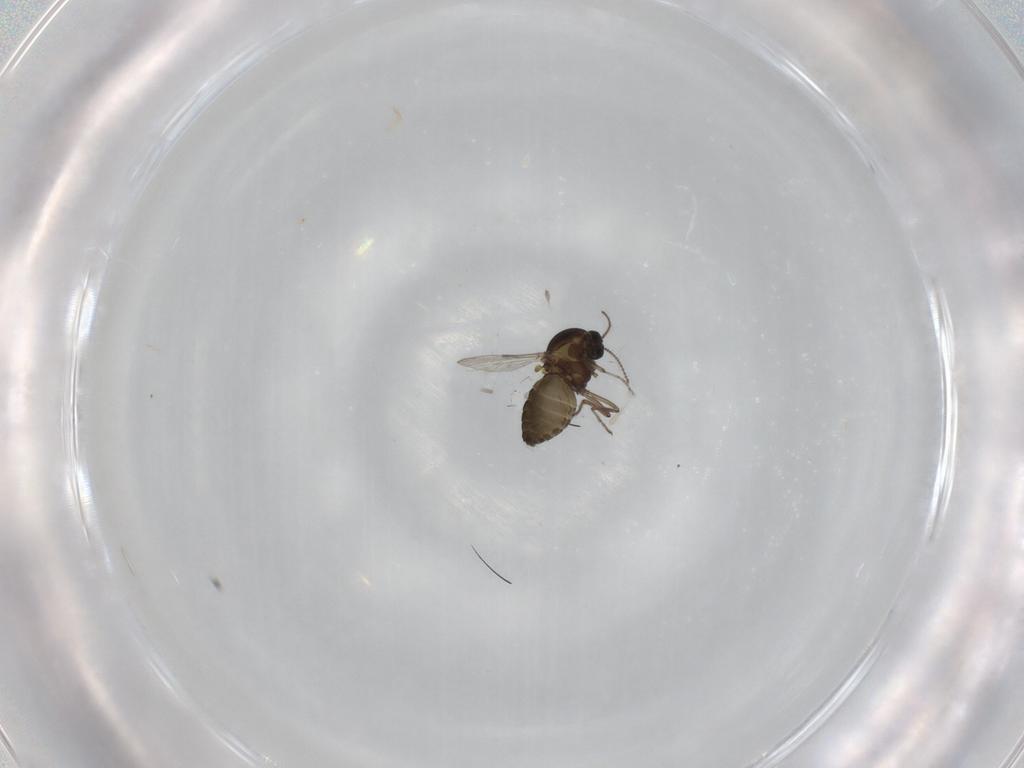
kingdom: Animalia
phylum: Arthropoda
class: Insecta
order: Diptera
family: Ceratopogonidae
